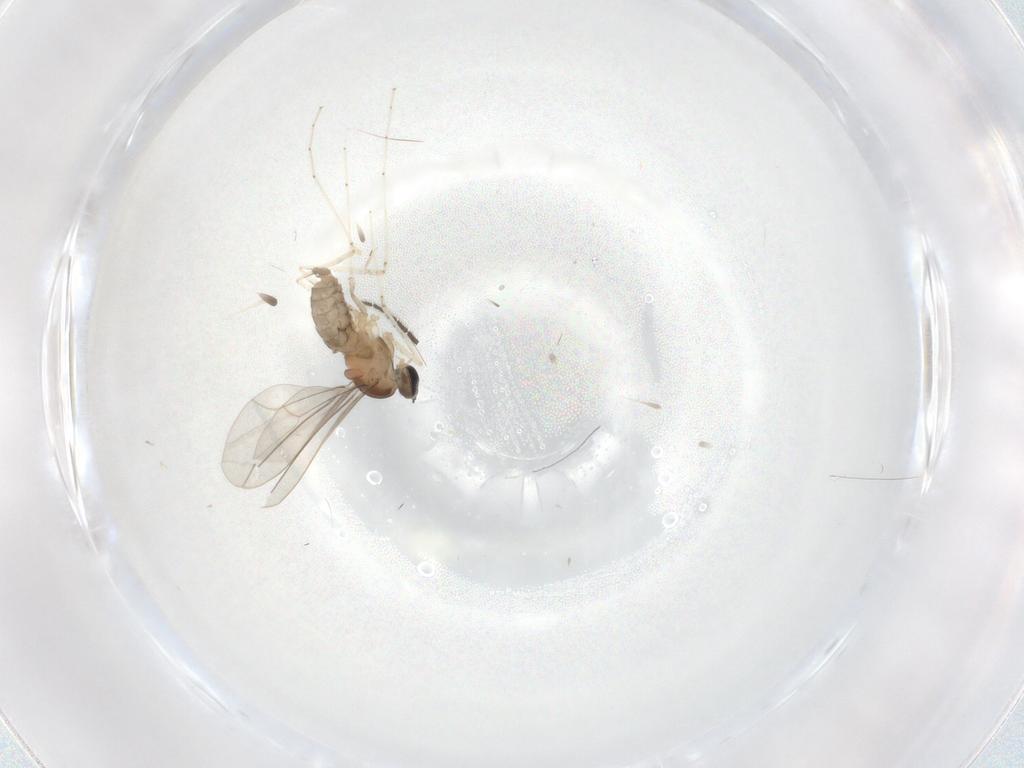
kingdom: Animalia
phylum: Arthropoda
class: Insecta
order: Diptera
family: Cecidomyiidae
